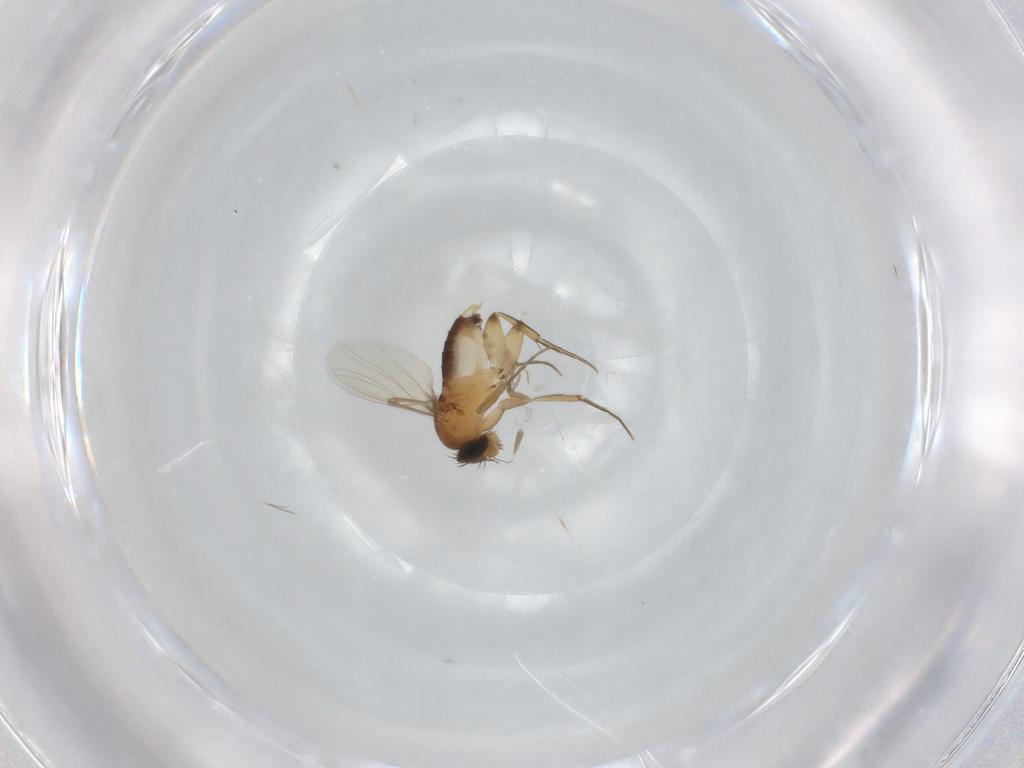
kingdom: Animalia
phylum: Arthropoda
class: Insecta
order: Diptera
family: Phoridae
